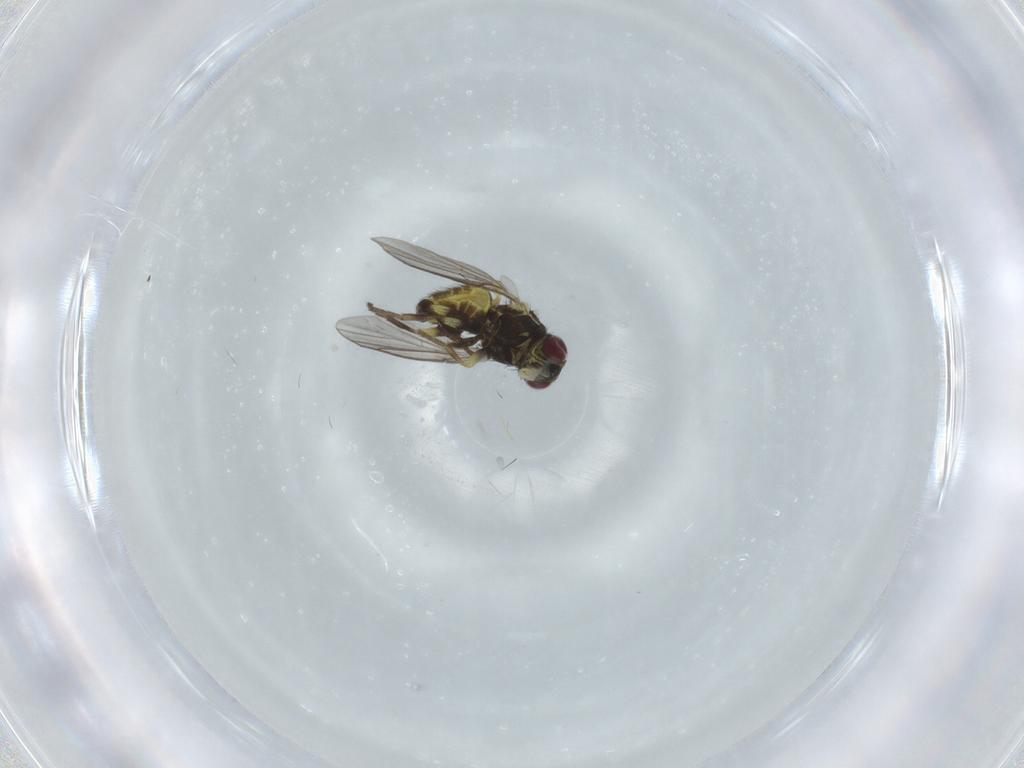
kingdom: Animalia
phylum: Arthropoda
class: Insecta
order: Diptera
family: Agromyzidae
